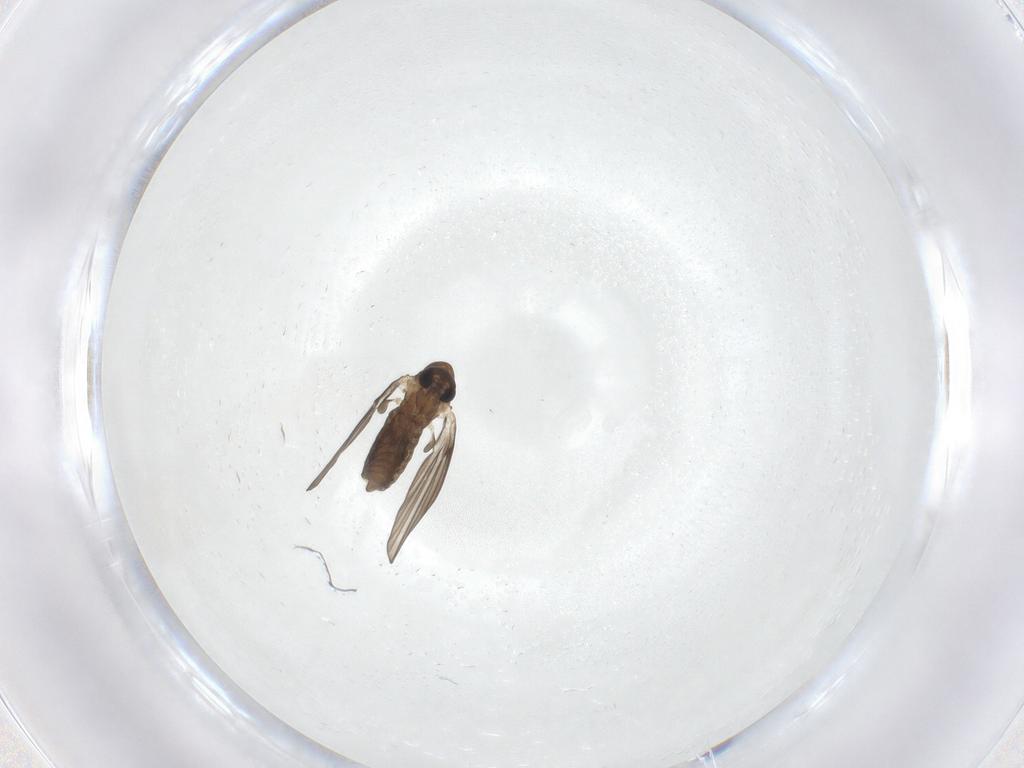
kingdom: Animalia
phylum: Arthropoda
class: Insecta
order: Diptera
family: Psychodidae
